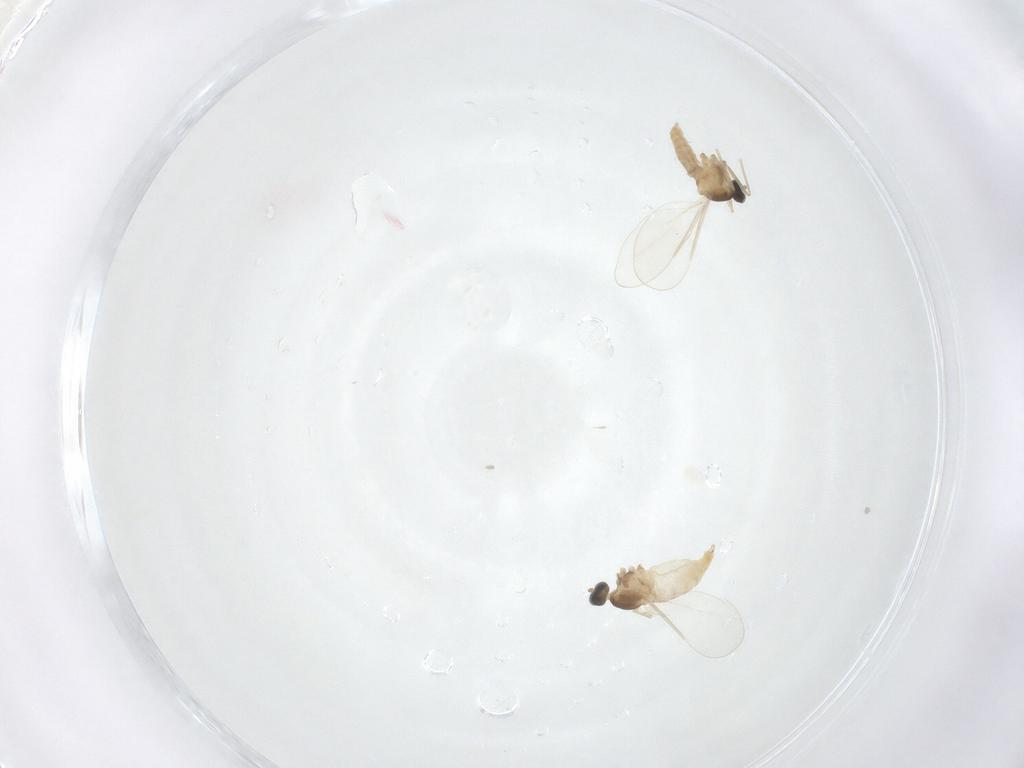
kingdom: Animalia
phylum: Arthropoda
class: Insecta
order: Diptera
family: Cecidomyiidae
